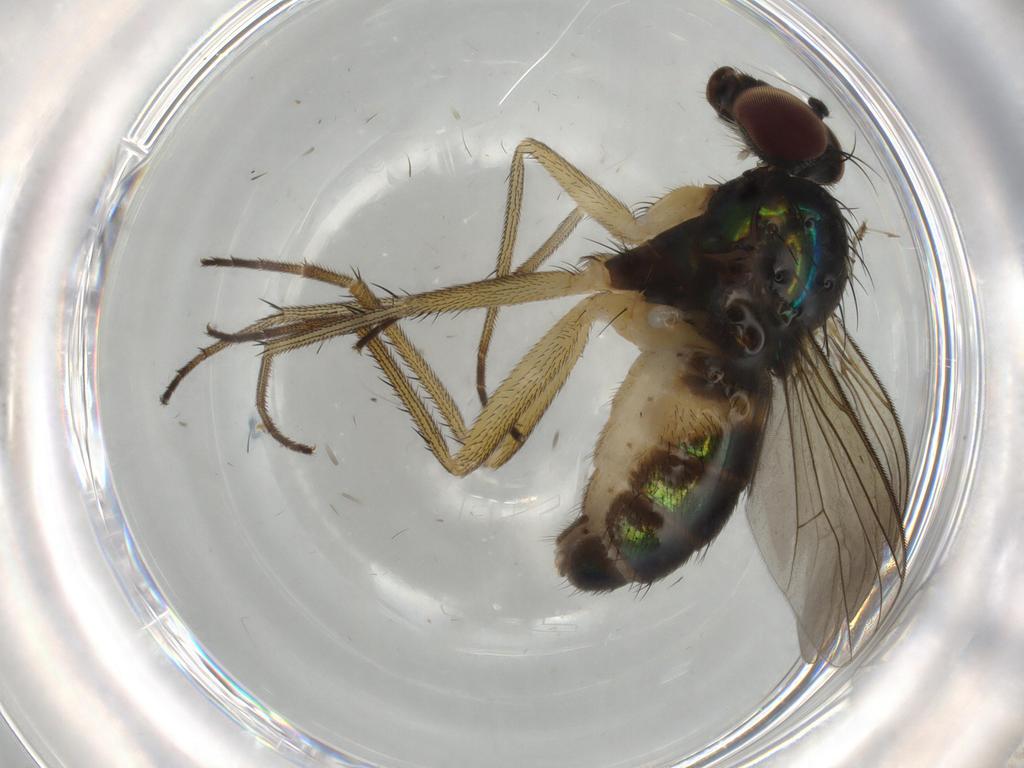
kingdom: Animalia
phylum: Arthropoda
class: Insecta
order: Diptera
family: Dolichopodidae
